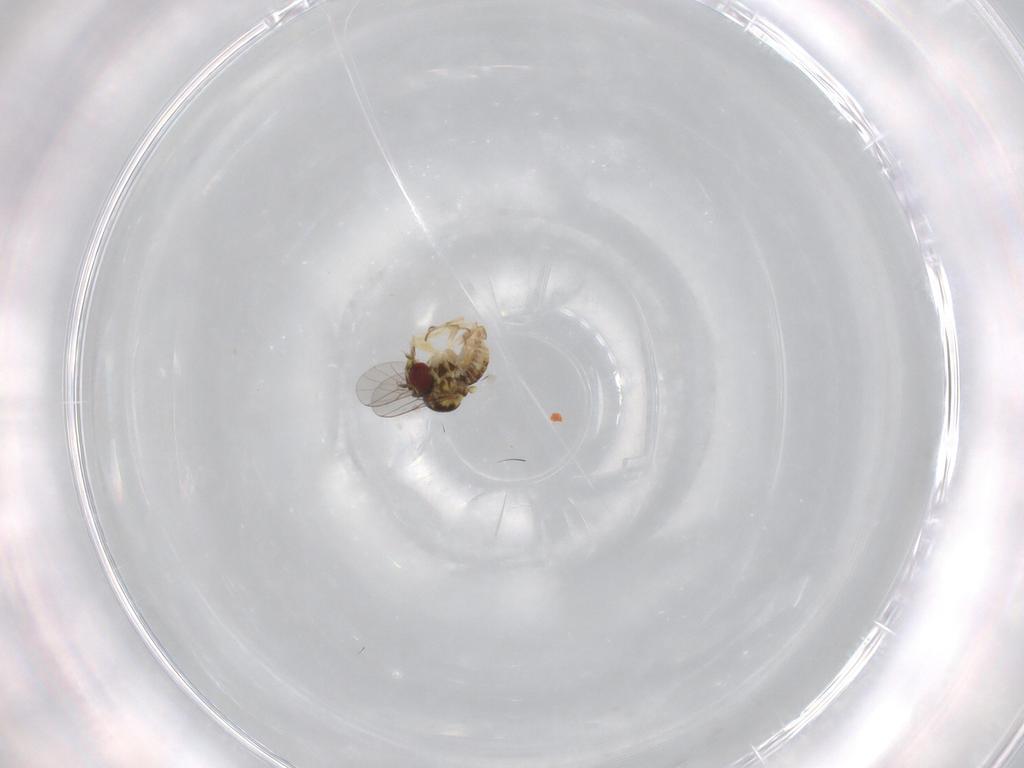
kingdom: Animalia
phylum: Arthropoda
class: Insecta
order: Diptera
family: Bombyliidae
